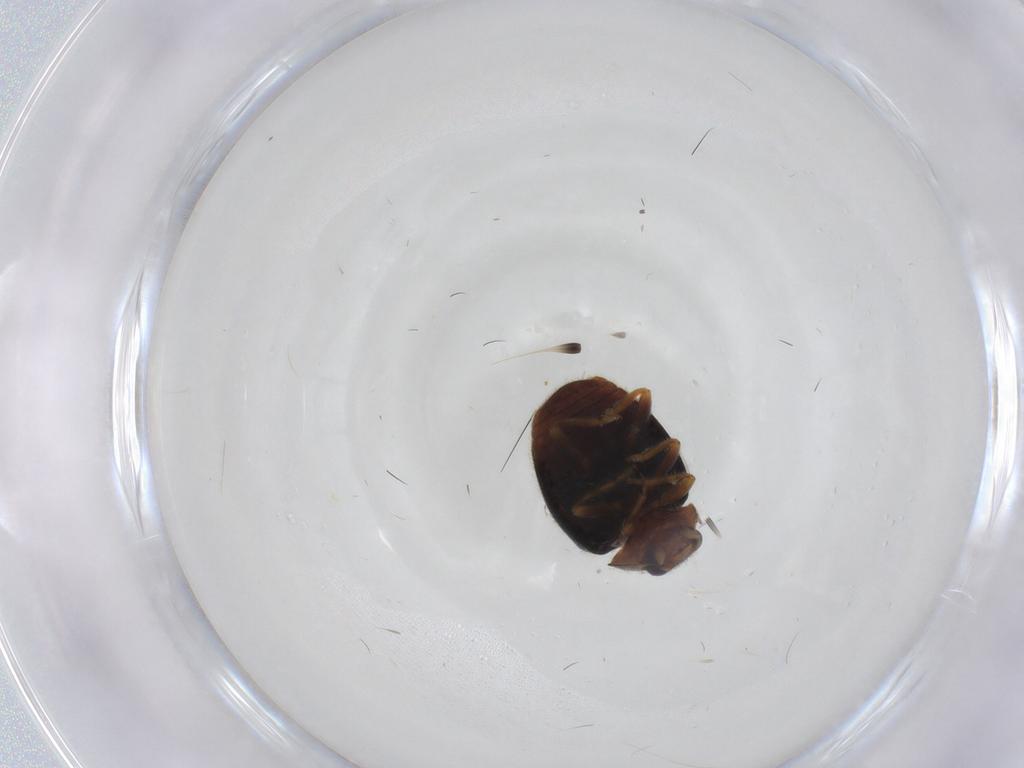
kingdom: Animalia
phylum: Arthropoda
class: Insecta
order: Coleoptera
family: Coccinellidae
